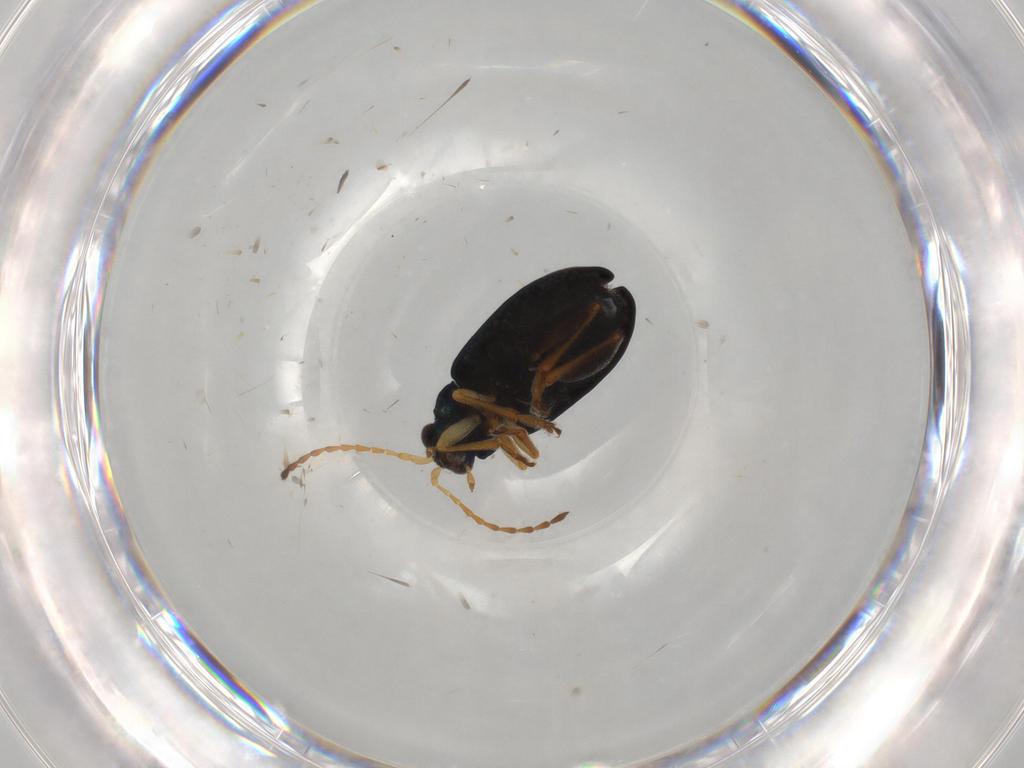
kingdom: Animalia
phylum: Arthropoda
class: Insecta
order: Coleoptera
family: Chrysomelidae
